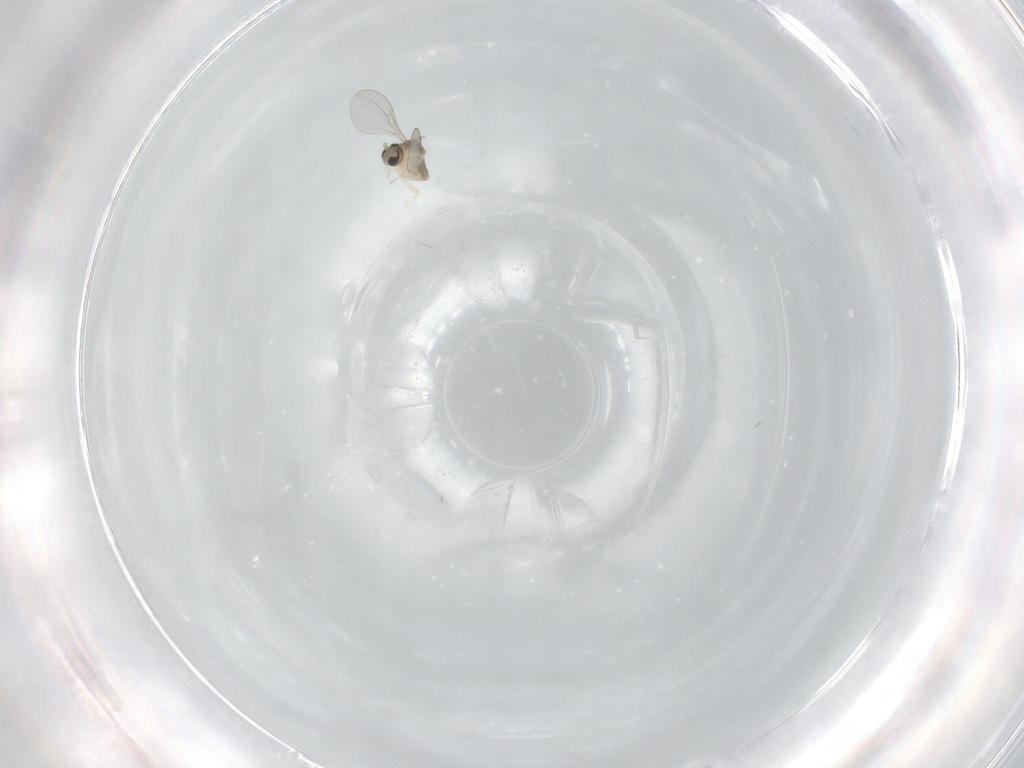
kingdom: Animalia
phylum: Arthropoda
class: Insecta
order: Diptera
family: Cecidomyiidae
